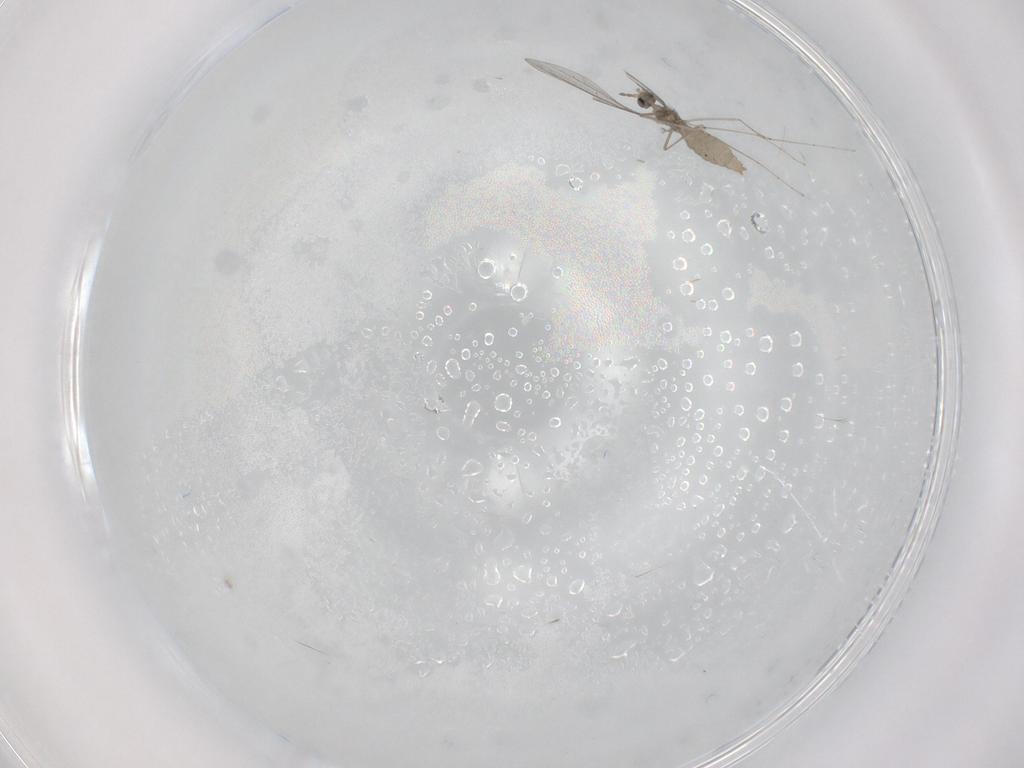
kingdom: Animalia
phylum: Arthropoda
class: Insecta
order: Diptera
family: Cecidomyiidae
